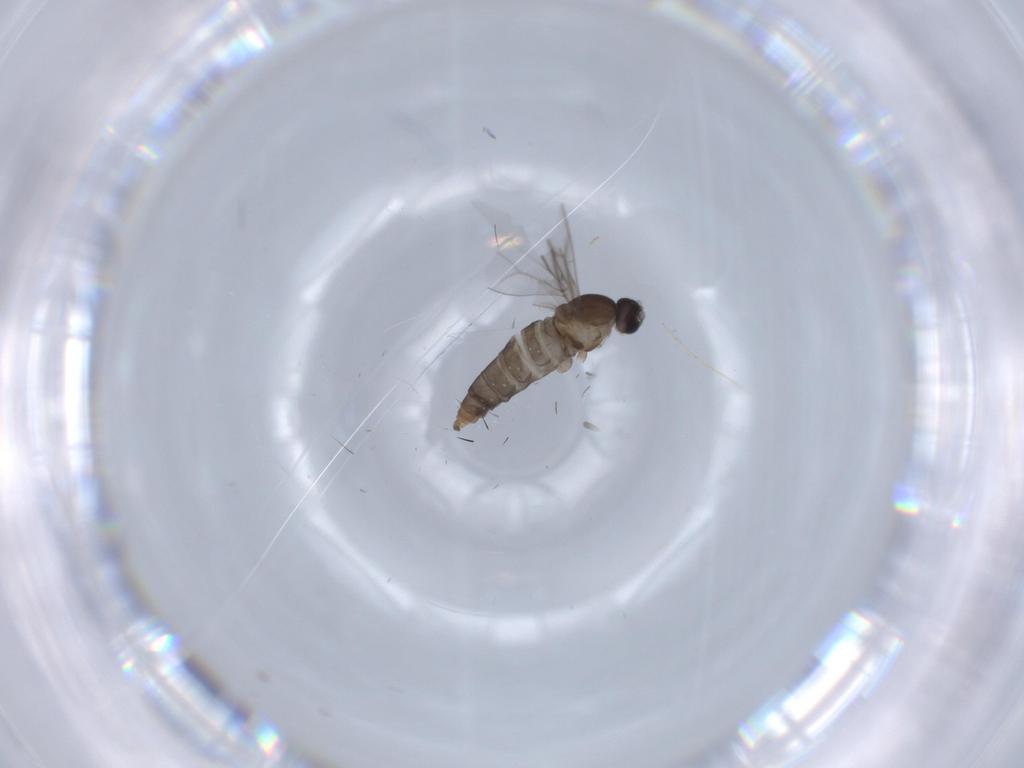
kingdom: Animalia
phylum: Arthropoda
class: Insecta
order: Diptera
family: Cecidomyiidae
